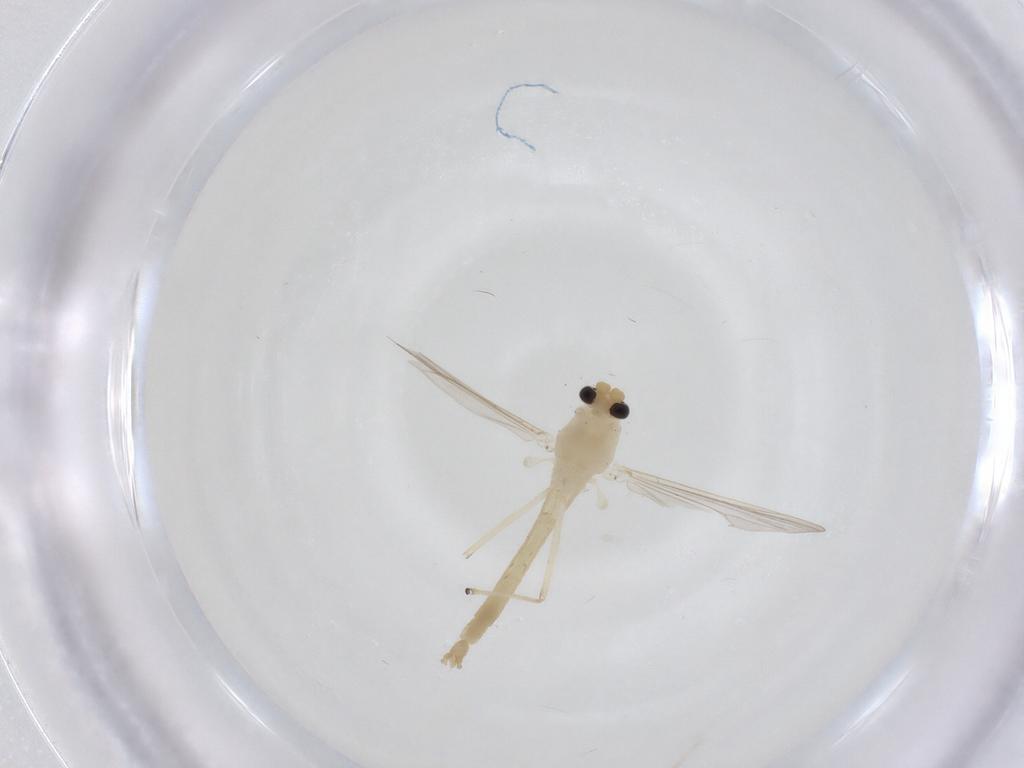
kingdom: Animalia
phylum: Arthropoda
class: Insecta
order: Diptera
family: Chironomidae
